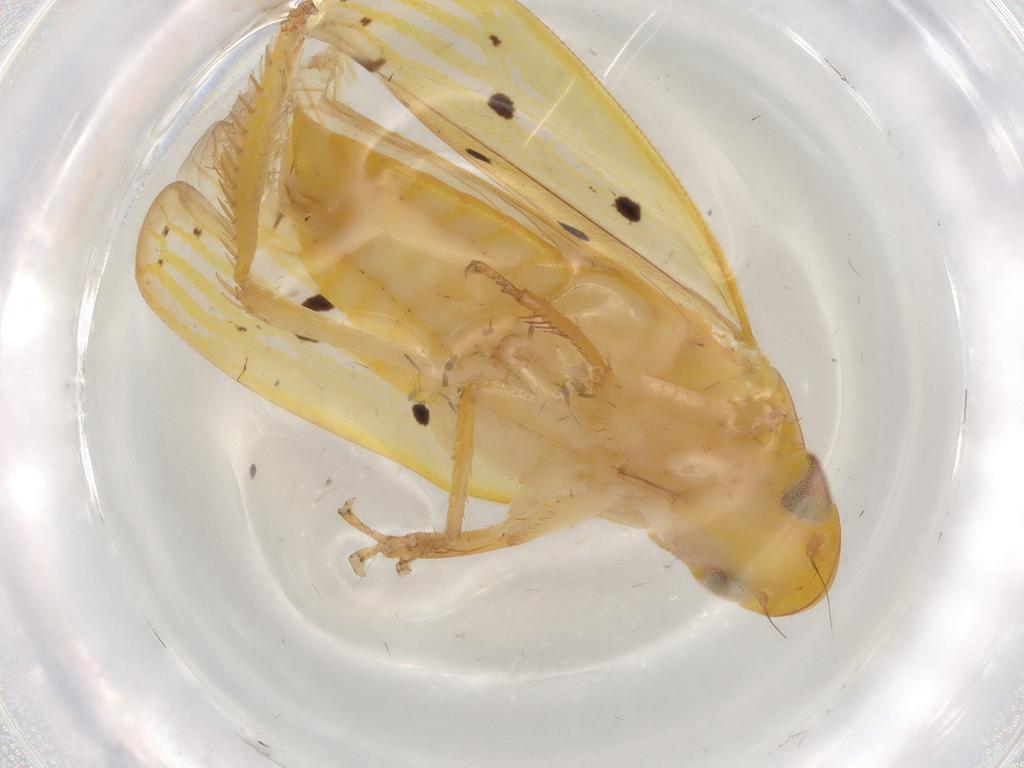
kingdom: Animalia
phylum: Arthropoda
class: Insecta
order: Hemiptera
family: Cicadellidae
